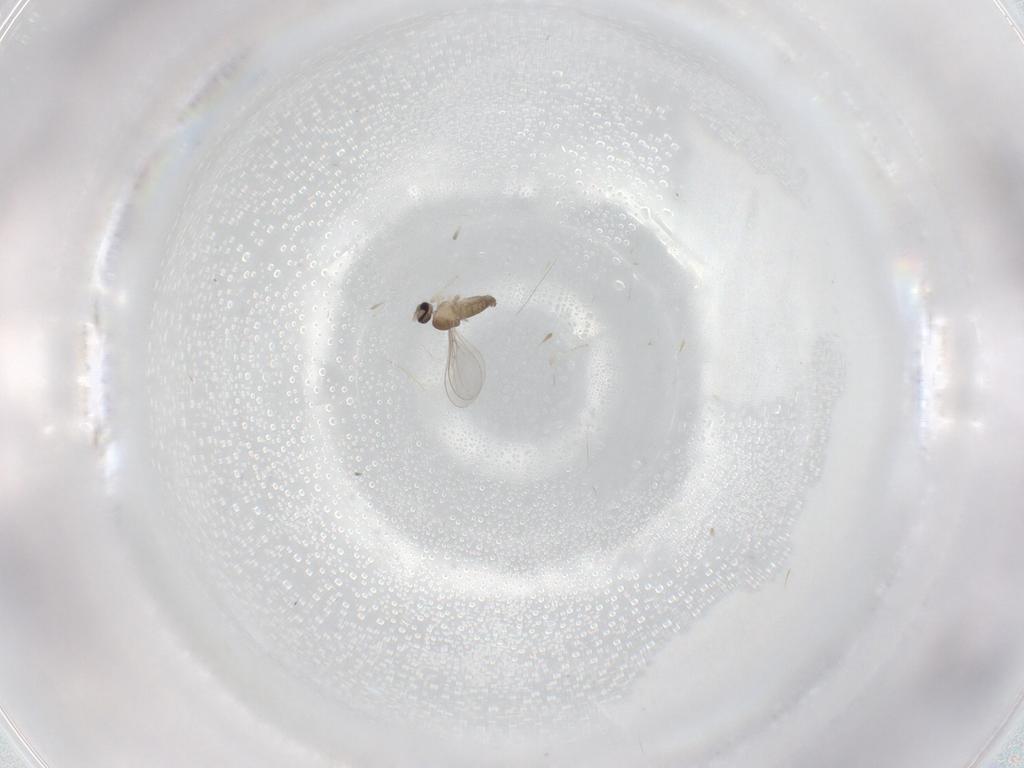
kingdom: Animalia
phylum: Arthropoda
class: Insecta
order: Diptera
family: Cecidomyiidae
